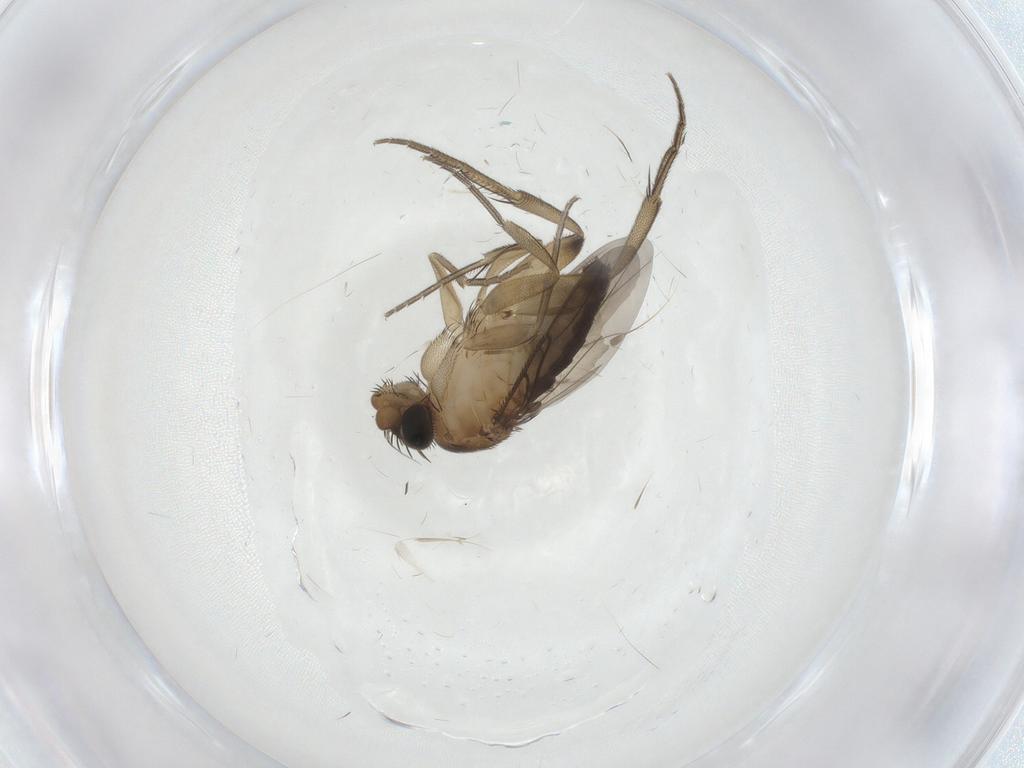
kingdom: Animalia
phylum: Arthropoda
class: Insecta
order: Diptera
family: Phoridae
